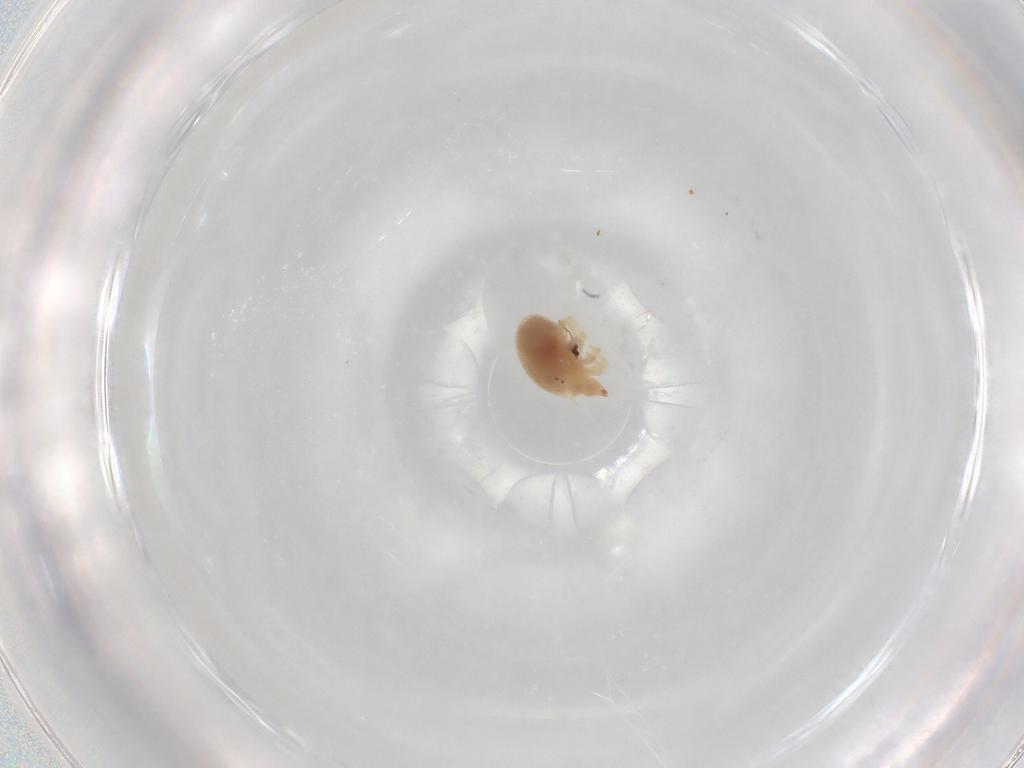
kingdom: Animalia
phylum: Arthropoda
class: Arachnida
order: Trombidiformes
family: Bdellidae
